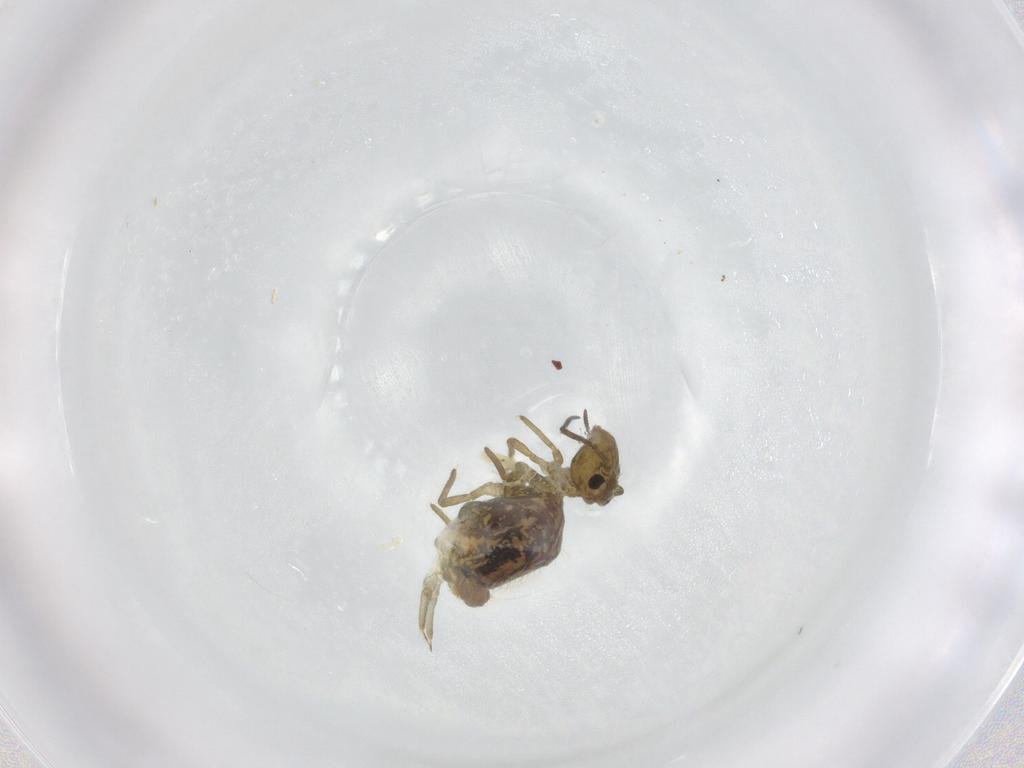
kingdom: Animalia
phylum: Arthropoda
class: Collembola
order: Symphypleona
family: Sminthuridae
